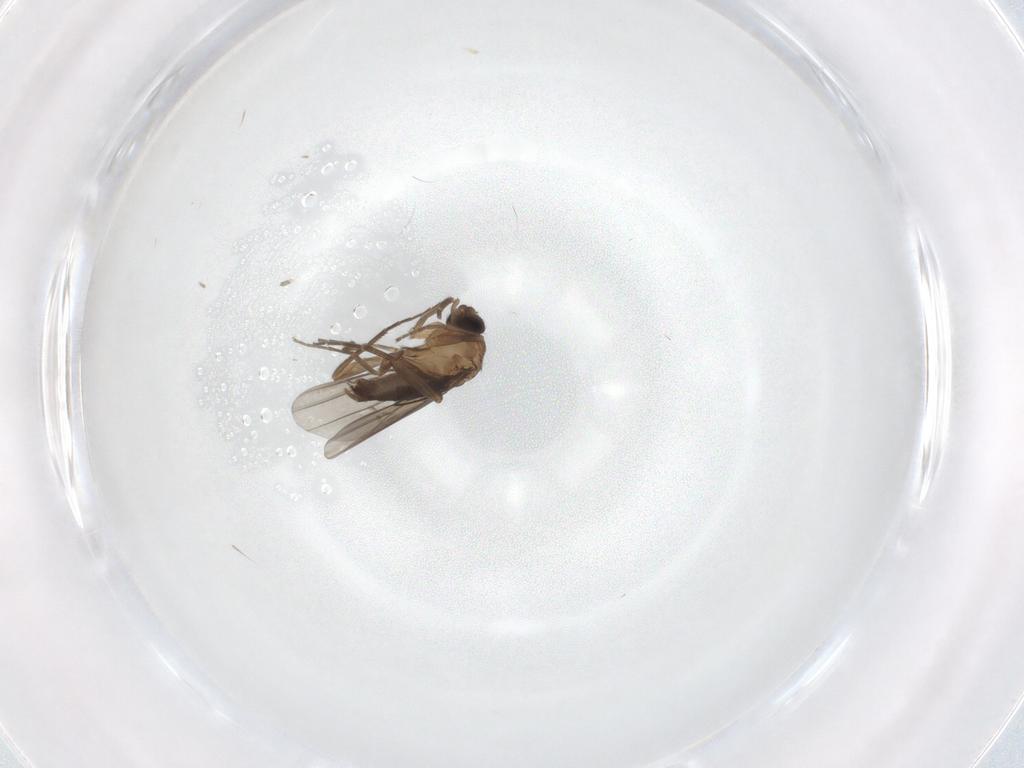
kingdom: Animalia
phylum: Arthropoda
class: Insecta
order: Diptera
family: Phoridae
